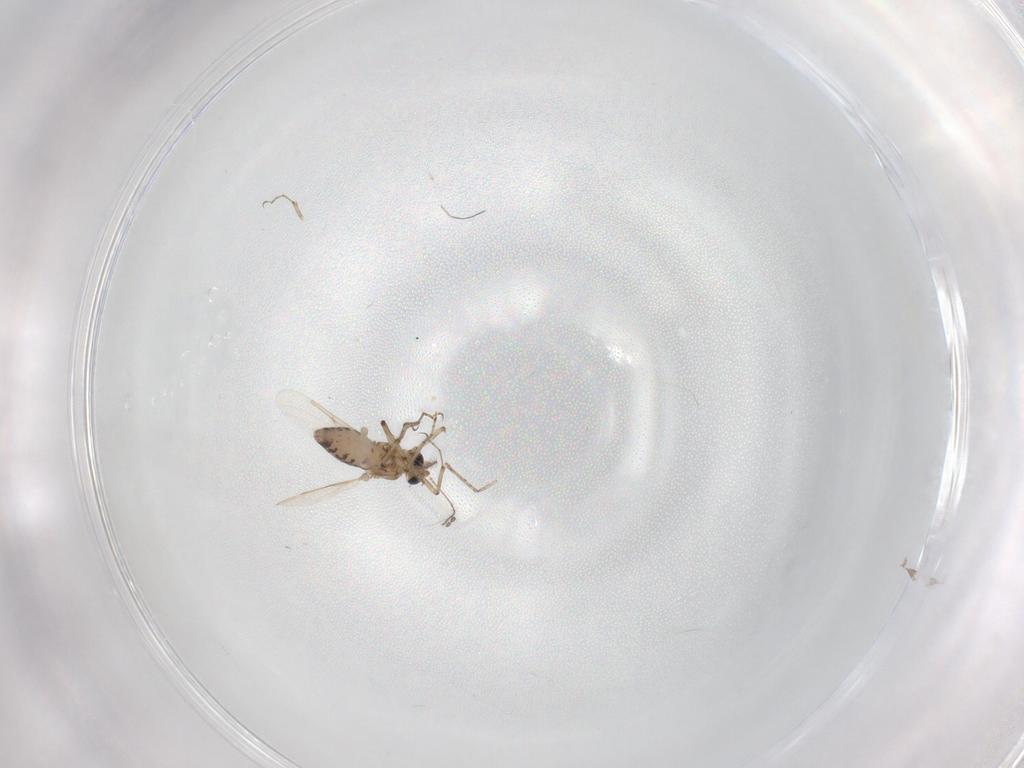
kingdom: Animalia
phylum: Arthropoda
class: Insecta
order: Diptera
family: Ceratopogonidae
